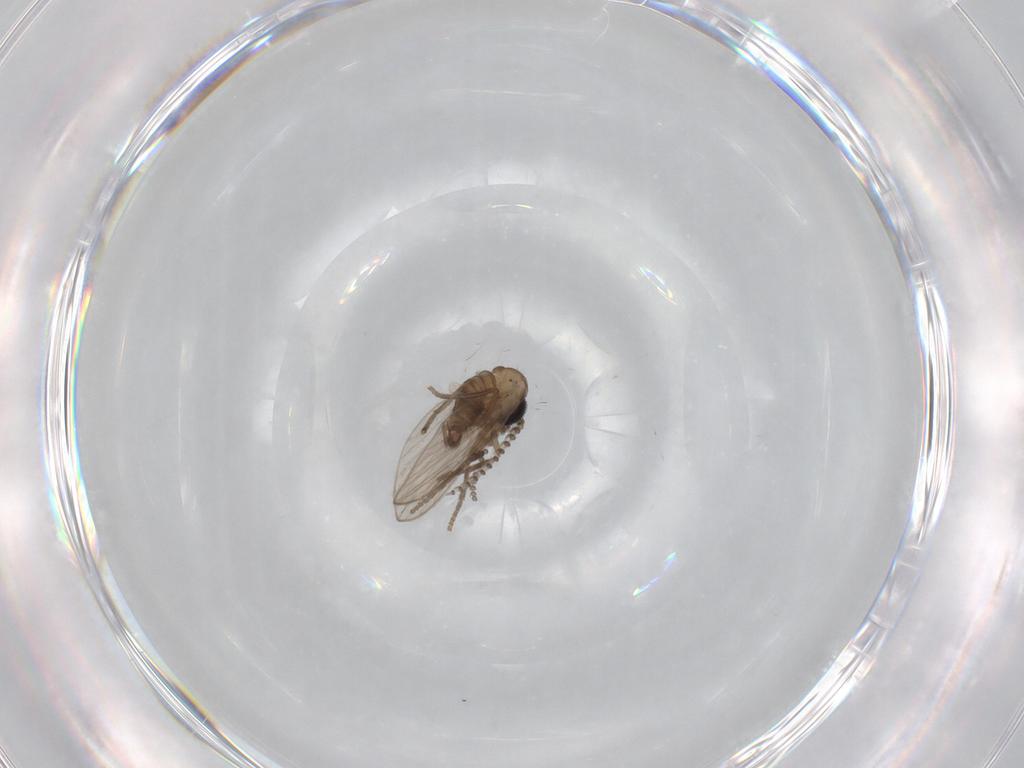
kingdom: Animalia
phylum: Arthropoda
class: Insecta
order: Diptera
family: Psychodidae
